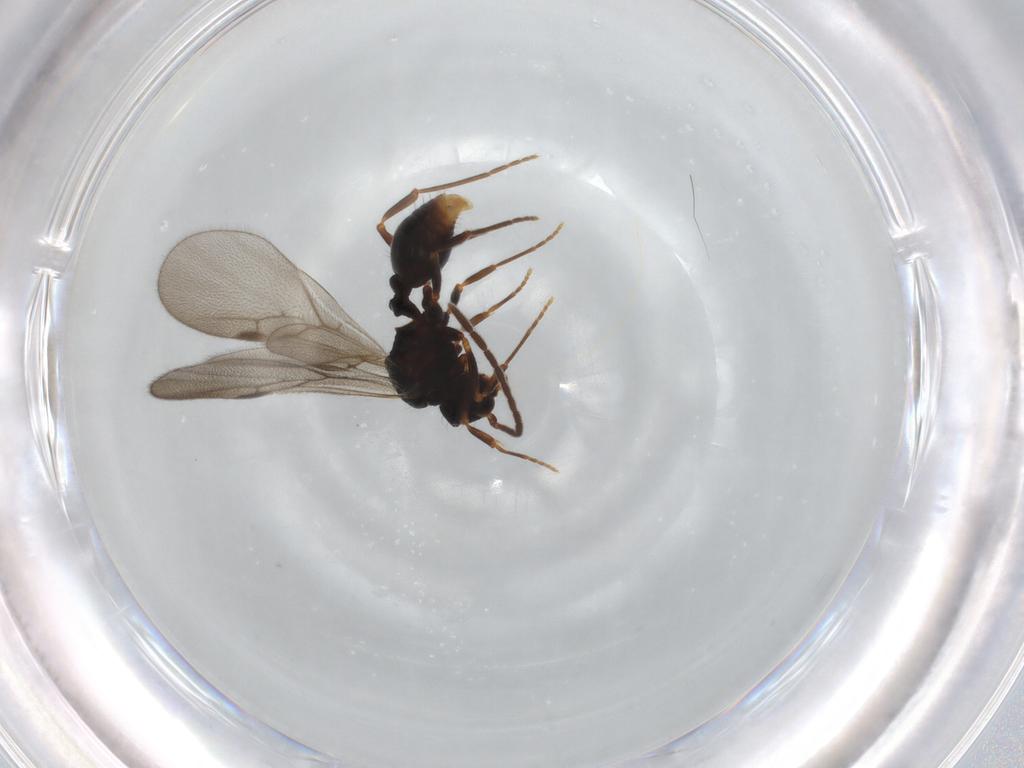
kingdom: Animalia
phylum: Arthropoda
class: Insecta
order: Hymenoptera
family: Formicidae
